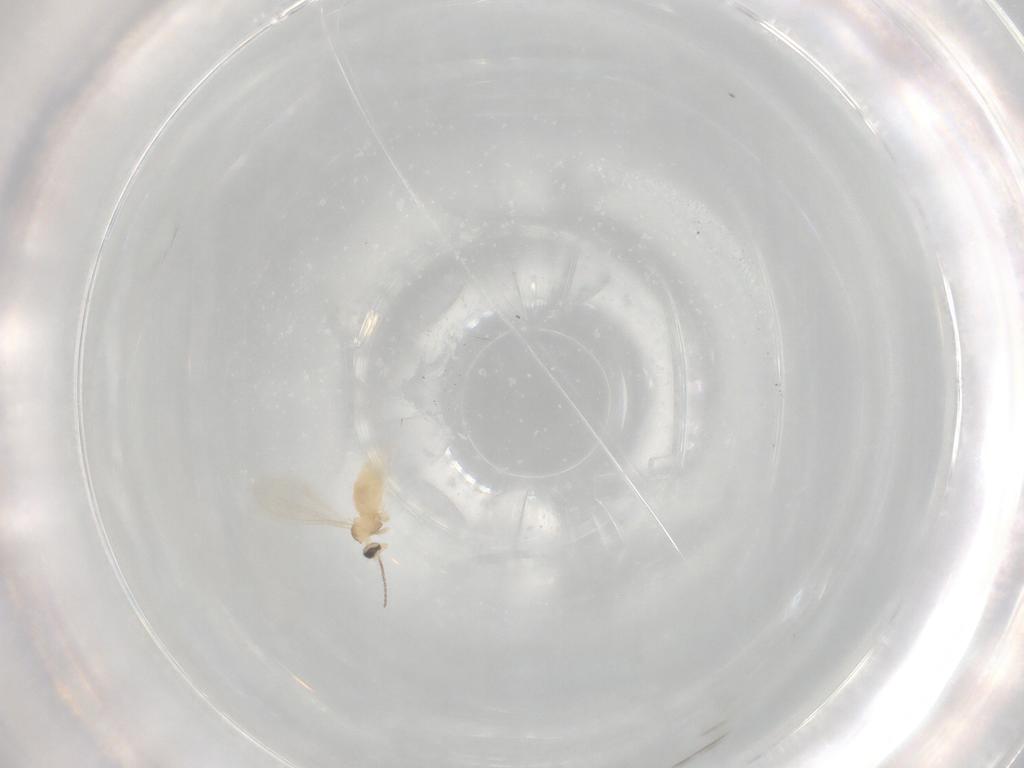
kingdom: Animalia
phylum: Arthropoda
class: Insecta
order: Diptera
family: Cecidomyiidae
